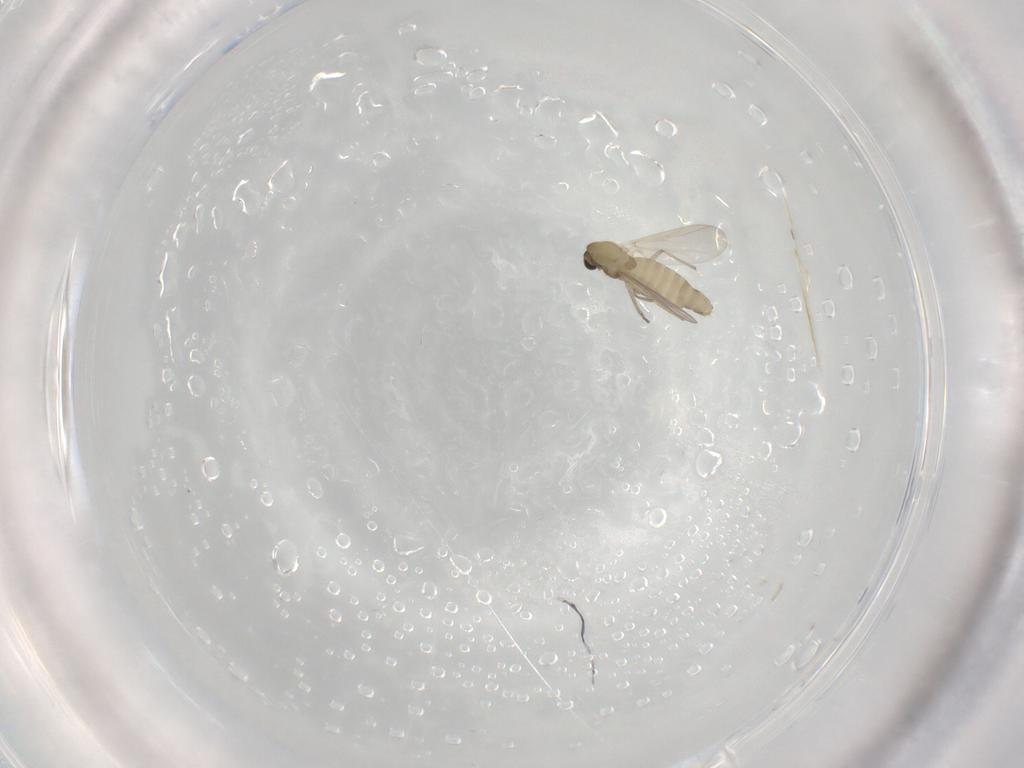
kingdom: Animalia
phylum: Arthropoda
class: Insecta
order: Diptera
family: Chironomidae
